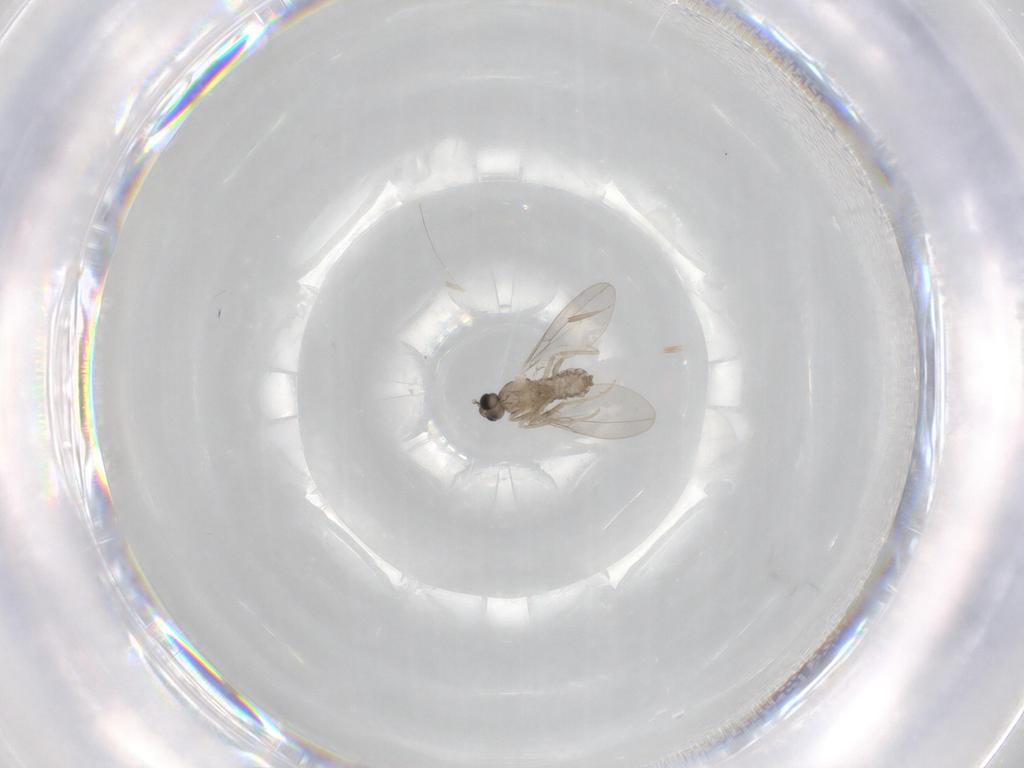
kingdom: Animalia
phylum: Arthropoda
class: Insecta
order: Diptera
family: Cecidomyiidae
